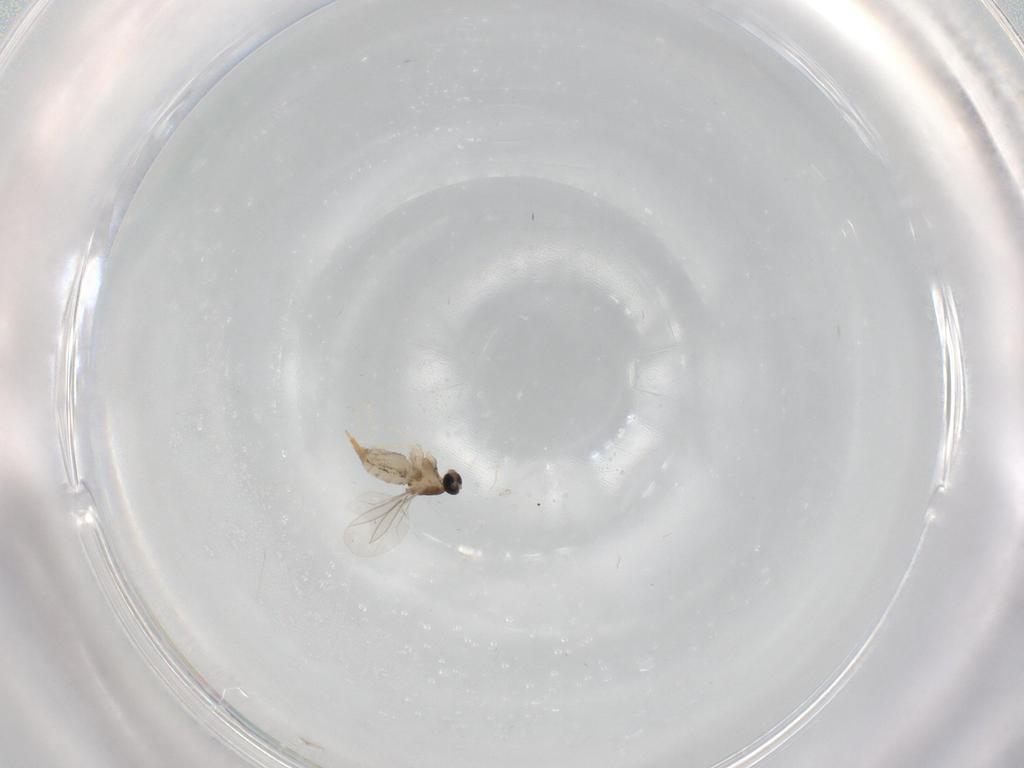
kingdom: Animalia
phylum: Arthropoda
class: Insecta
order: Diptera
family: Cecidomyiidae
